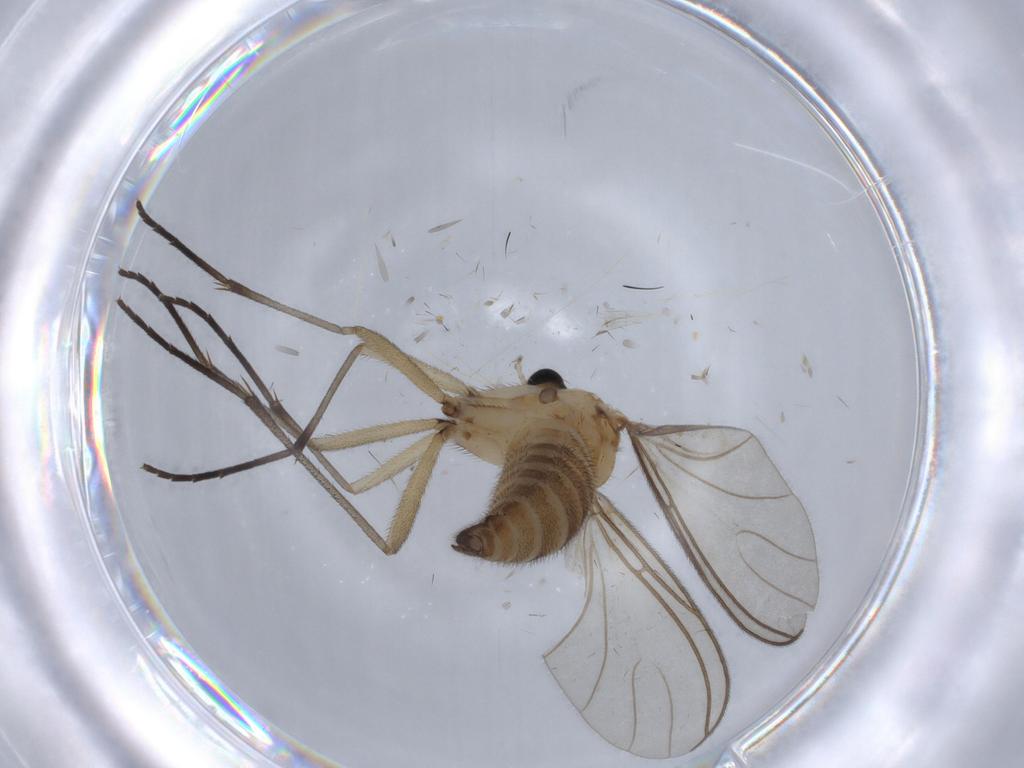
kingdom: Animalia
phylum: Arthropoda
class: Insecta
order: Diptera
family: Sciaridae
